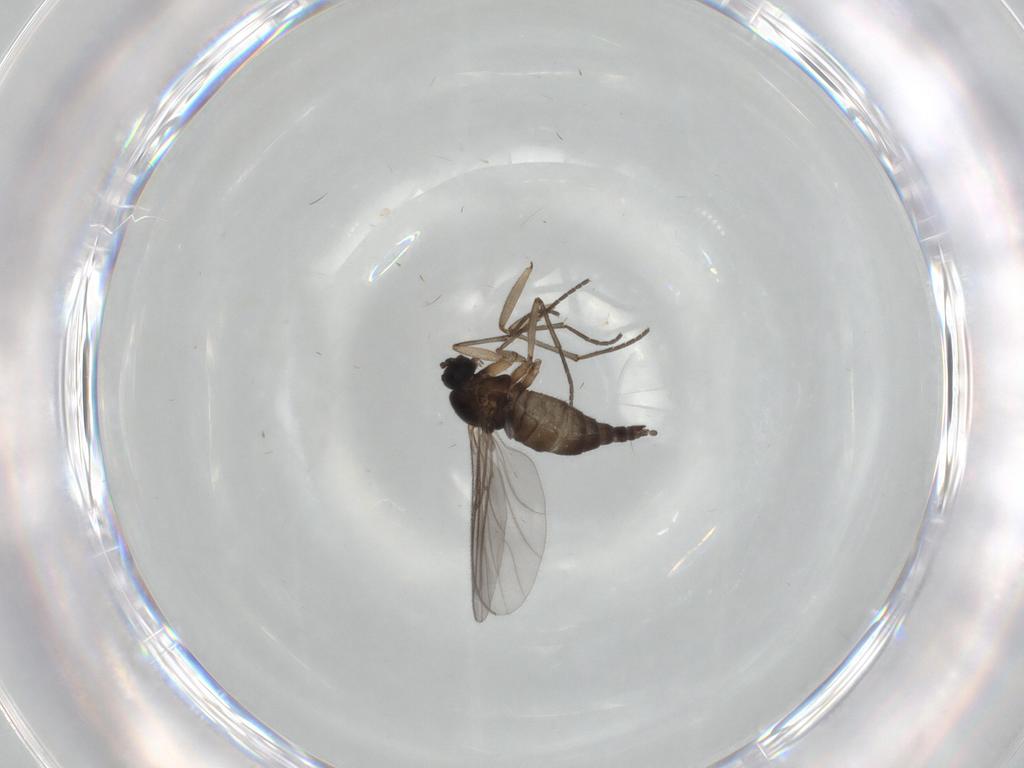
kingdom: Animalia
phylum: Arthropoda
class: Insecta
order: Diptera
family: Sciaridae
